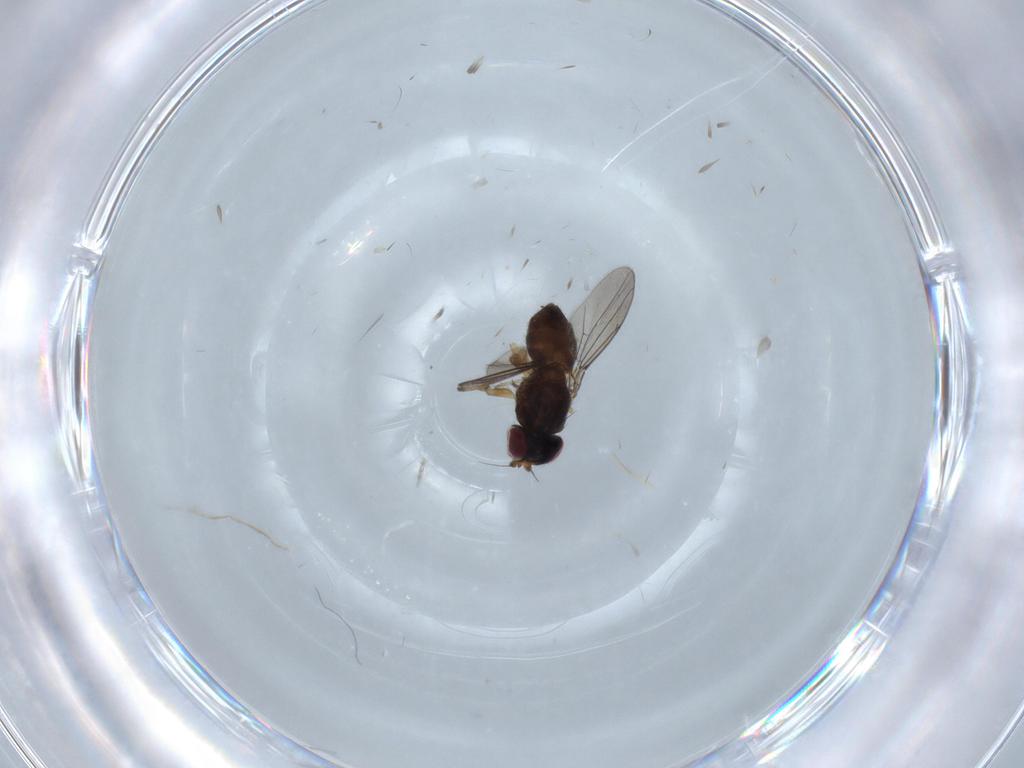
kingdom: Animalia
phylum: Arthropoda
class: Insecta
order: Diptera
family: Chloropidae
